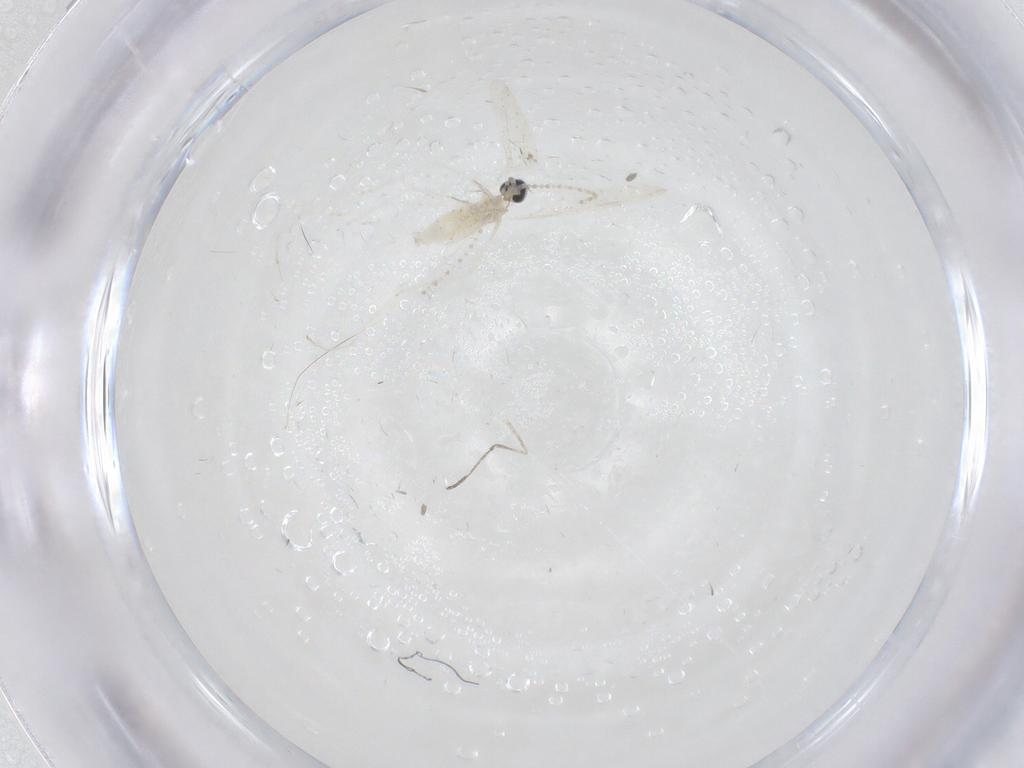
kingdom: Animalia
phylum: Arthropoda
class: Insecta
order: Diptera
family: Chironomidae
